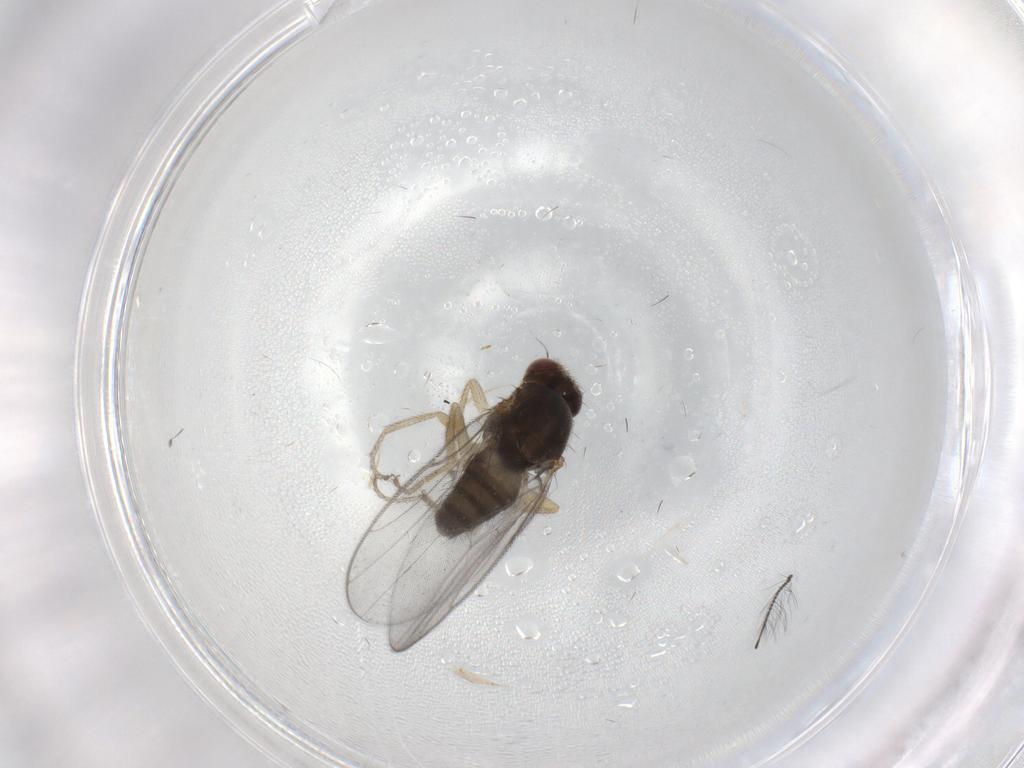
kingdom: Animalia
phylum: Arthropoda
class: Insecta
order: Diptera
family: Chloropidae
